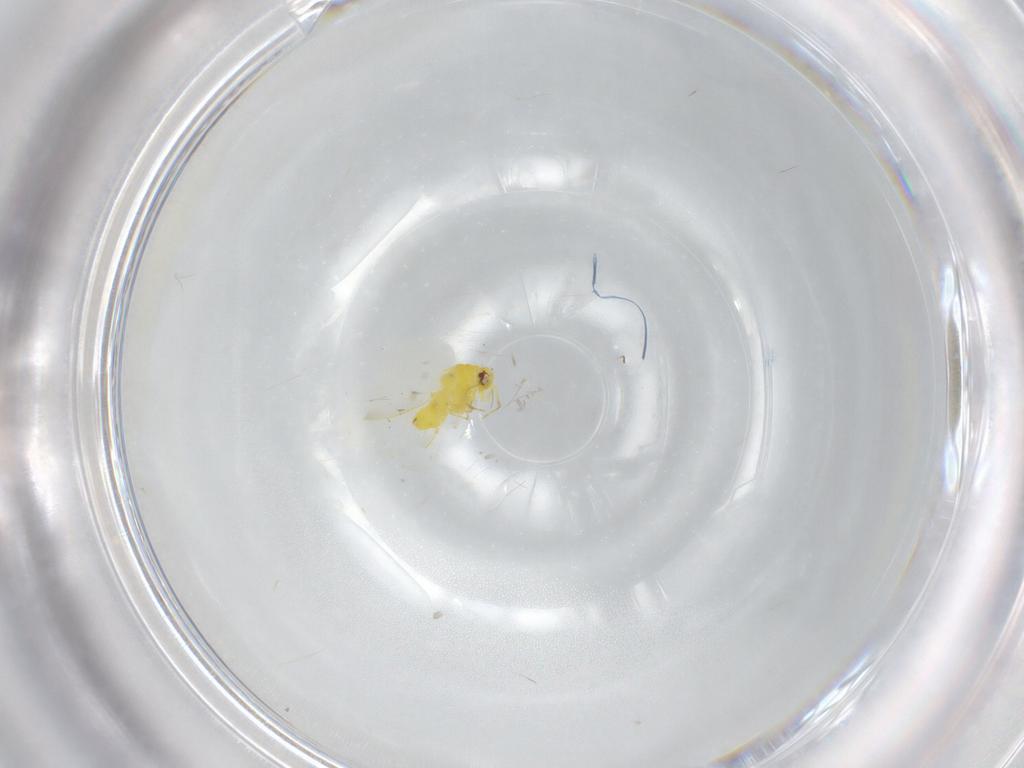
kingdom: Animalia
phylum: Arthropoda
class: Insecta
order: Hemiptera
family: Aleyrodidae
